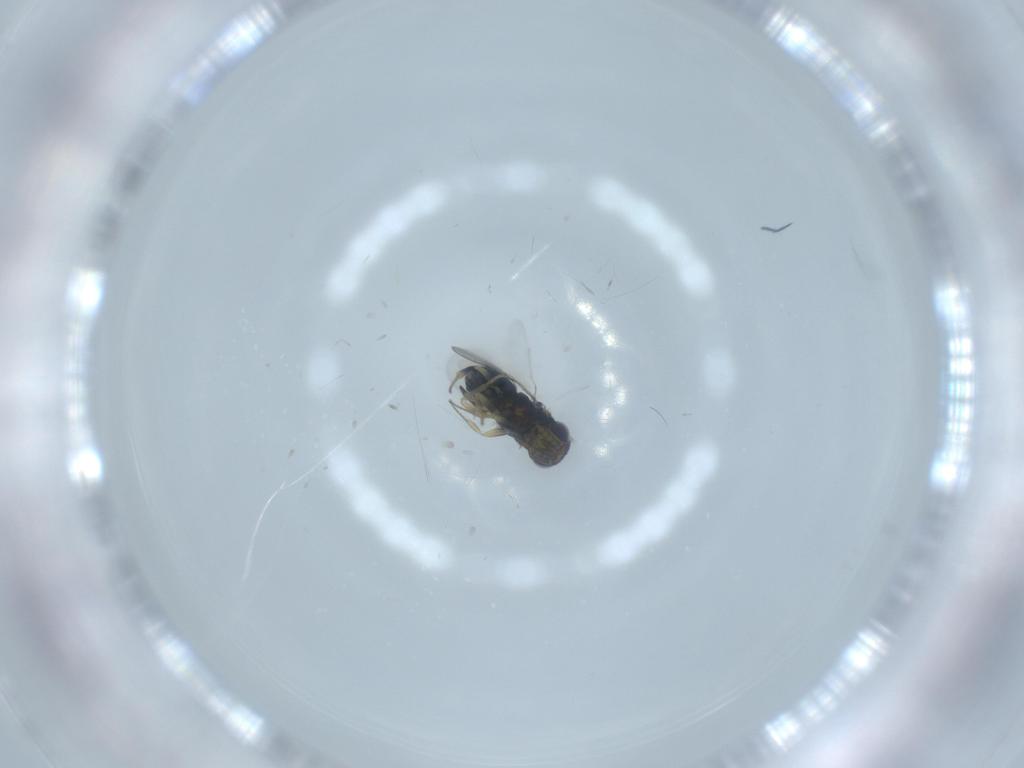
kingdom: Animalia
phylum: Arthropoda
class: Insecta
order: Hymenoptera
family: Aphelinidae
